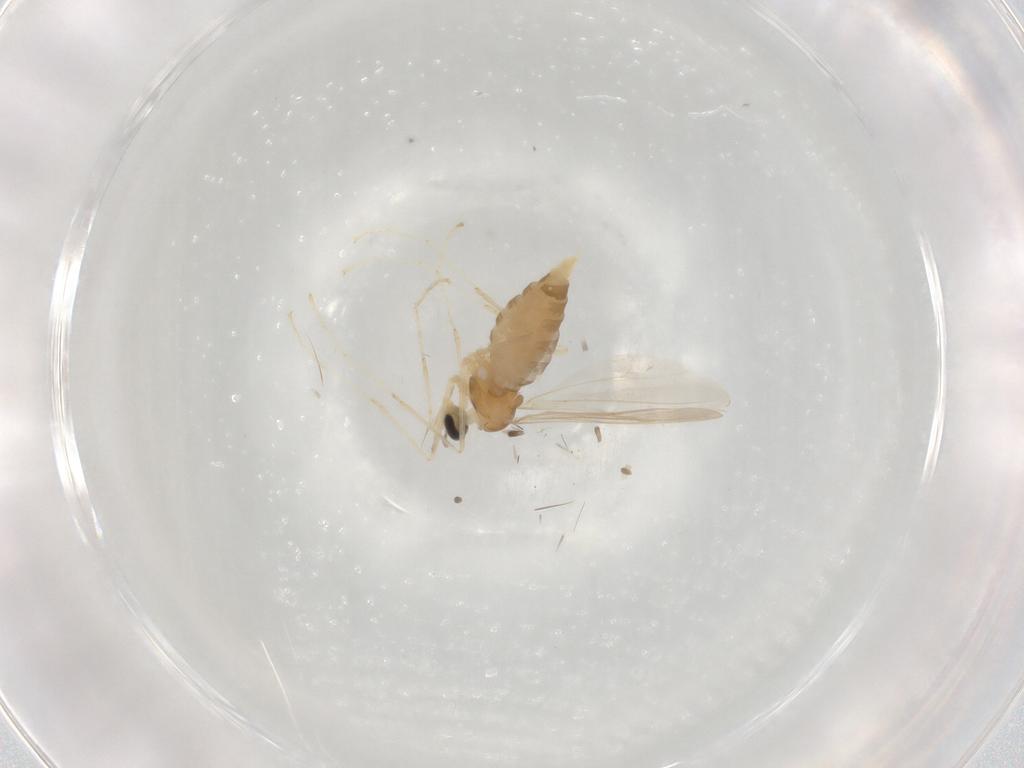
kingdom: Animalia
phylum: Arthropoda
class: Insecta
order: Diptera
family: Cecidomyiidae
